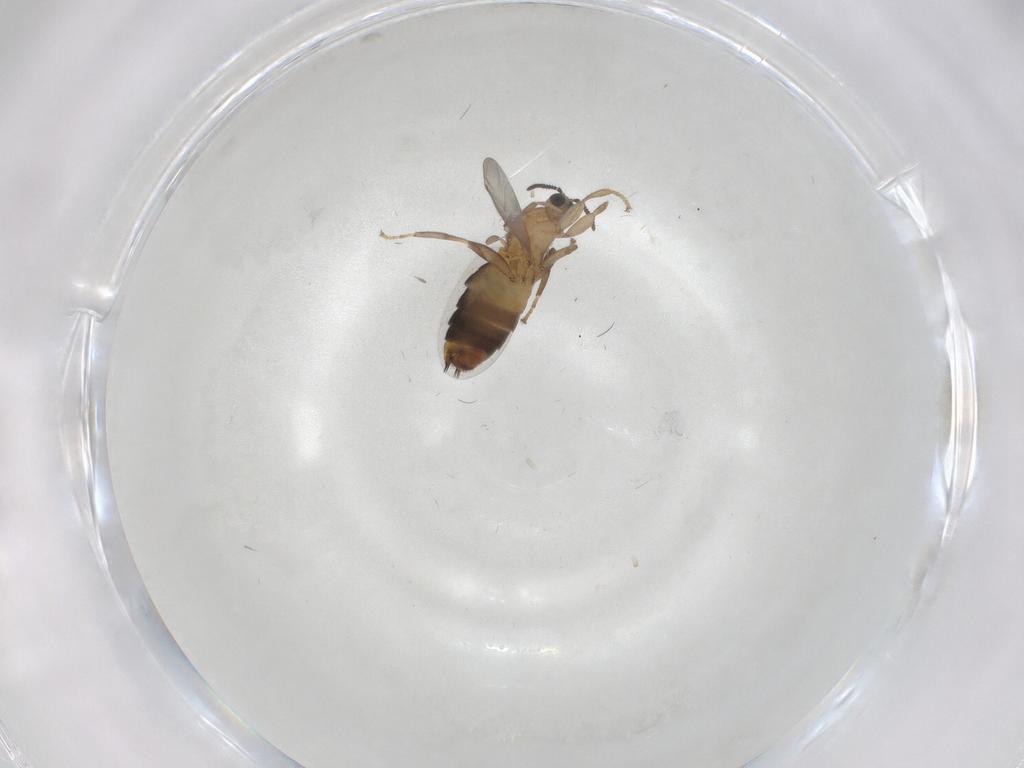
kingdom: Animalia
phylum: Arthropoda
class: Insecta
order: Diptera
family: Phoridae
